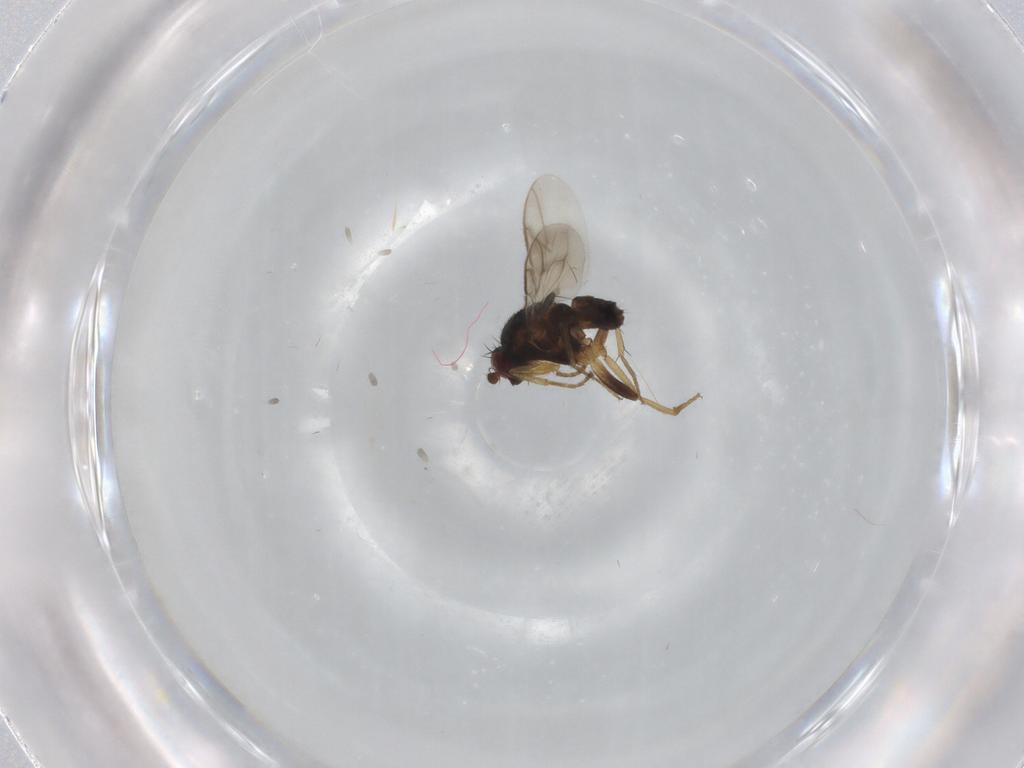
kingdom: Animalia
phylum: Arthropoda
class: Insecta
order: Diptera
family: Sphaeroceridae
